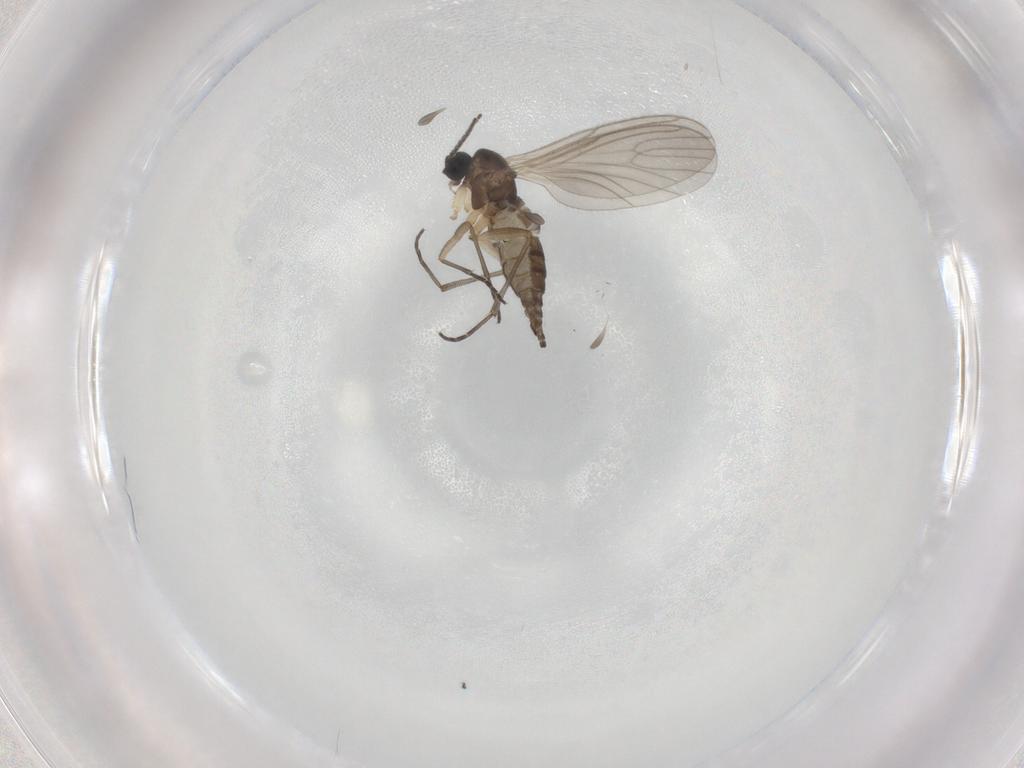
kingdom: Animalia
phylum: Arthropoda
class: Insecta
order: Diptera
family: Sciaridae
